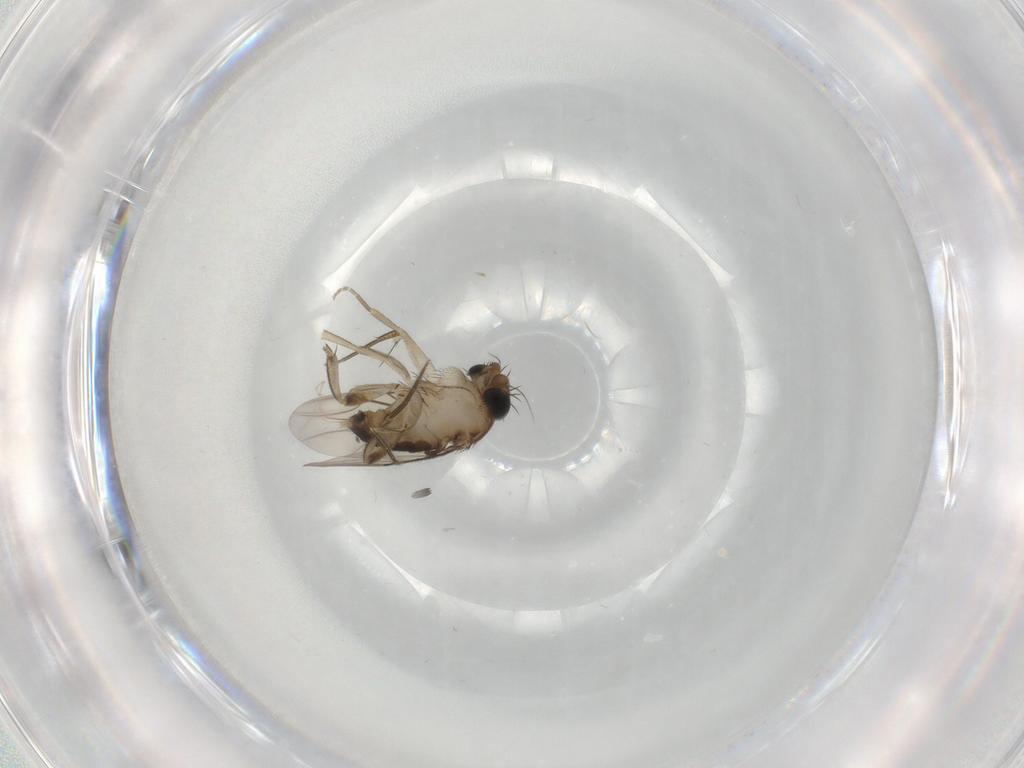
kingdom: Animalia
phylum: Arthropoda
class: Insecta
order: Diptera
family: Phoridae
